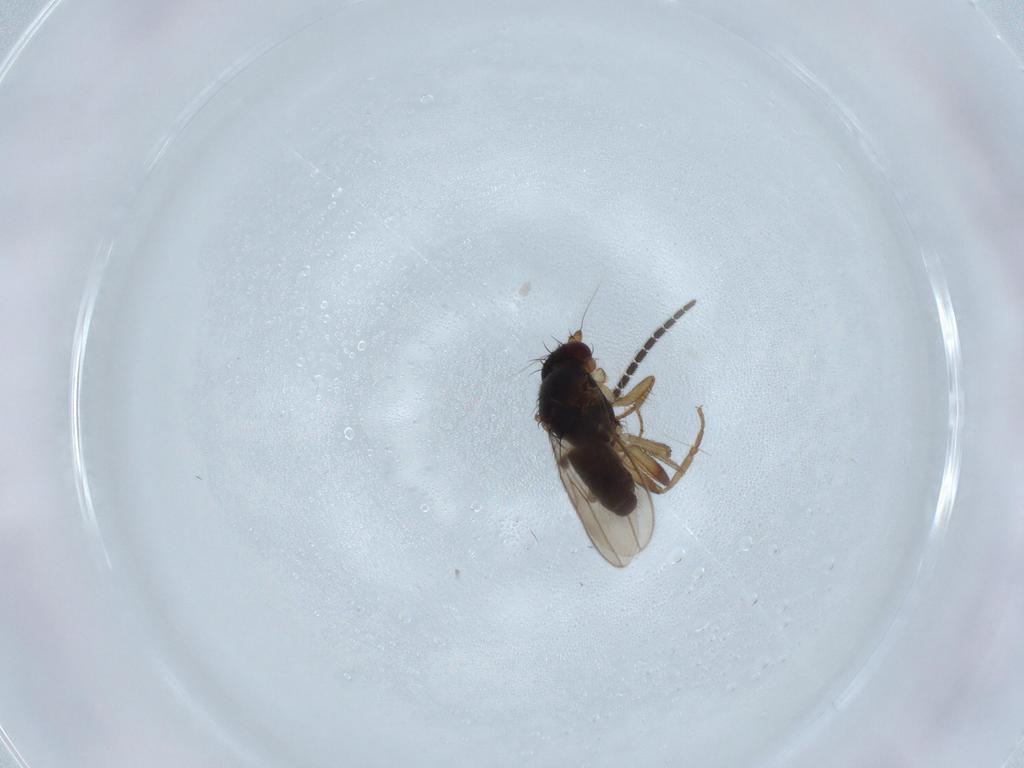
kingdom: Animalia
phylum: Arthropoda
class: Insecta
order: Diptera
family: Sphaeroceridae
